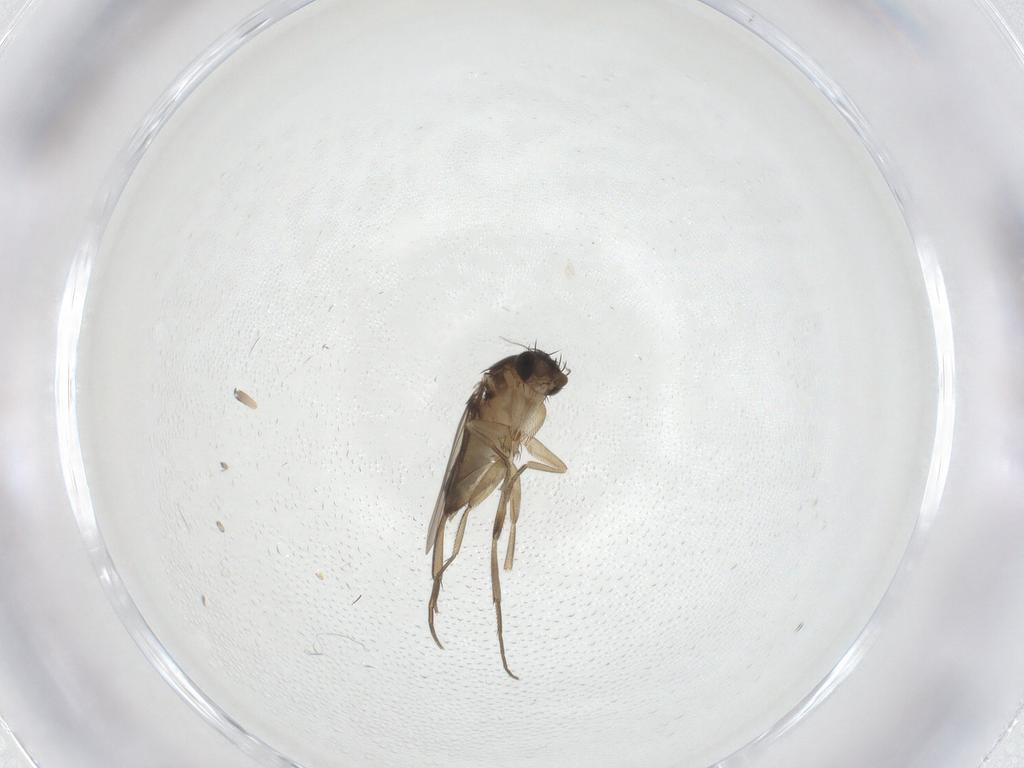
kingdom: Animalia
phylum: Arthropoda
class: Insecta
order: Diptera
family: Phoridae
